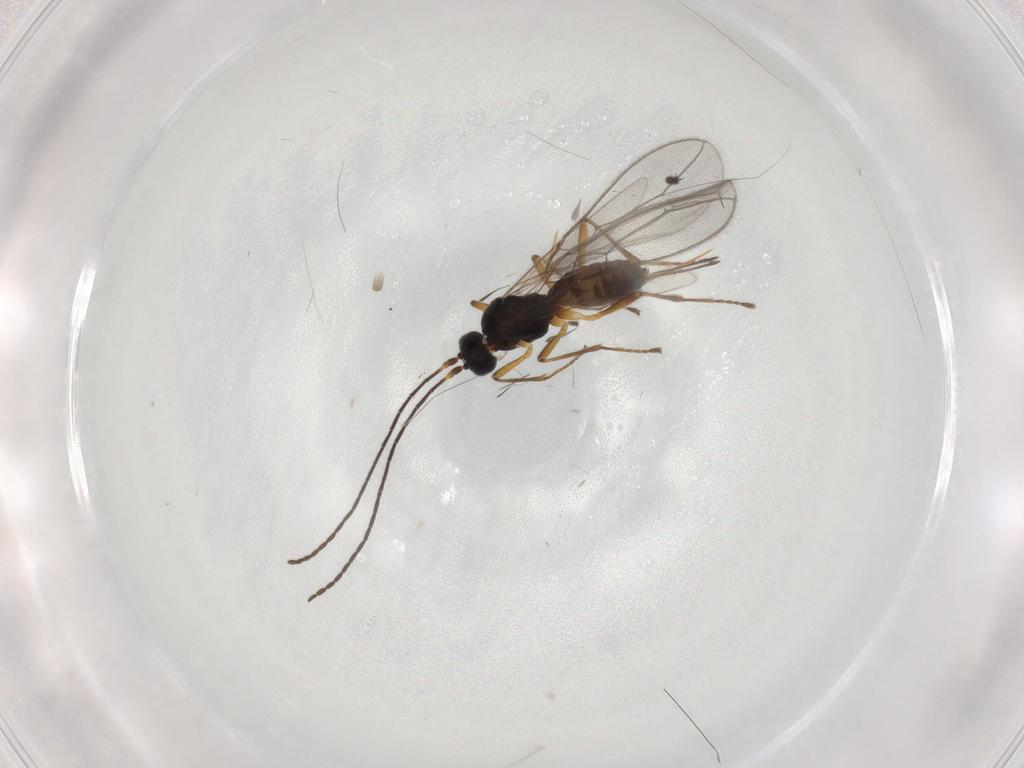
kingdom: Animalia
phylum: Arthropoda
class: Insecta
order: Hymenoptera
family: Braconidae
